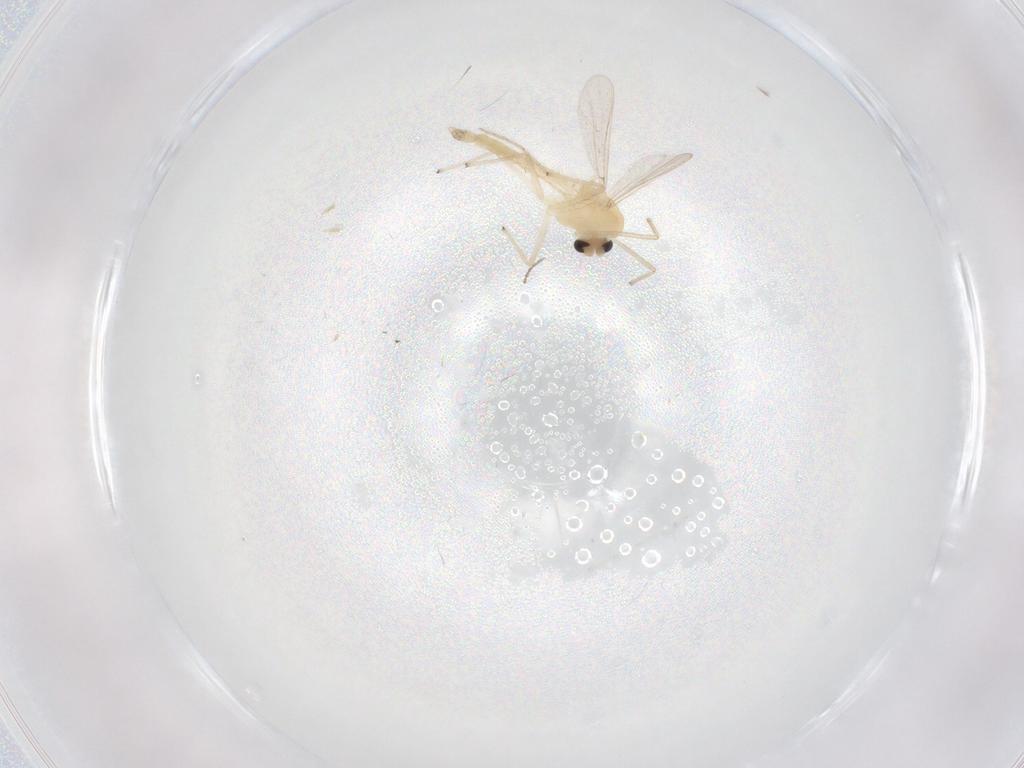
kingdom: Animalia
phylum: Arthropoda
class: Insecta
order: Diptera
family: Chironomidae
